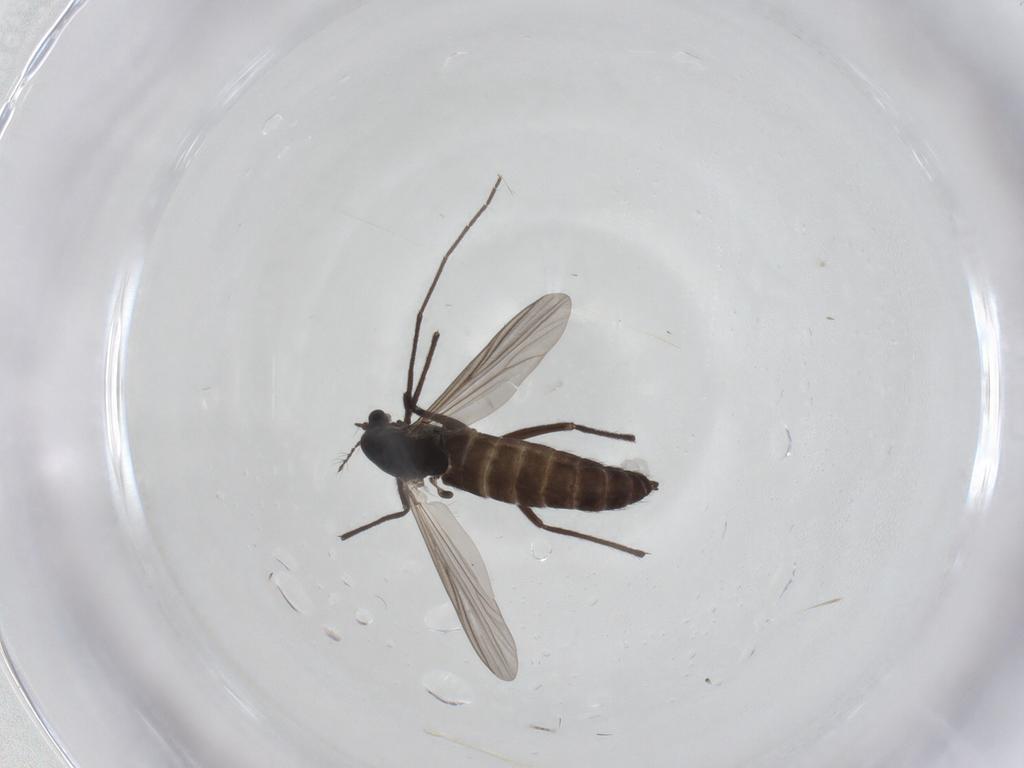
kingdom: Animalia
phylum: Arthropoda
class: Insecta
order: Diptera
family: Chironomidae
